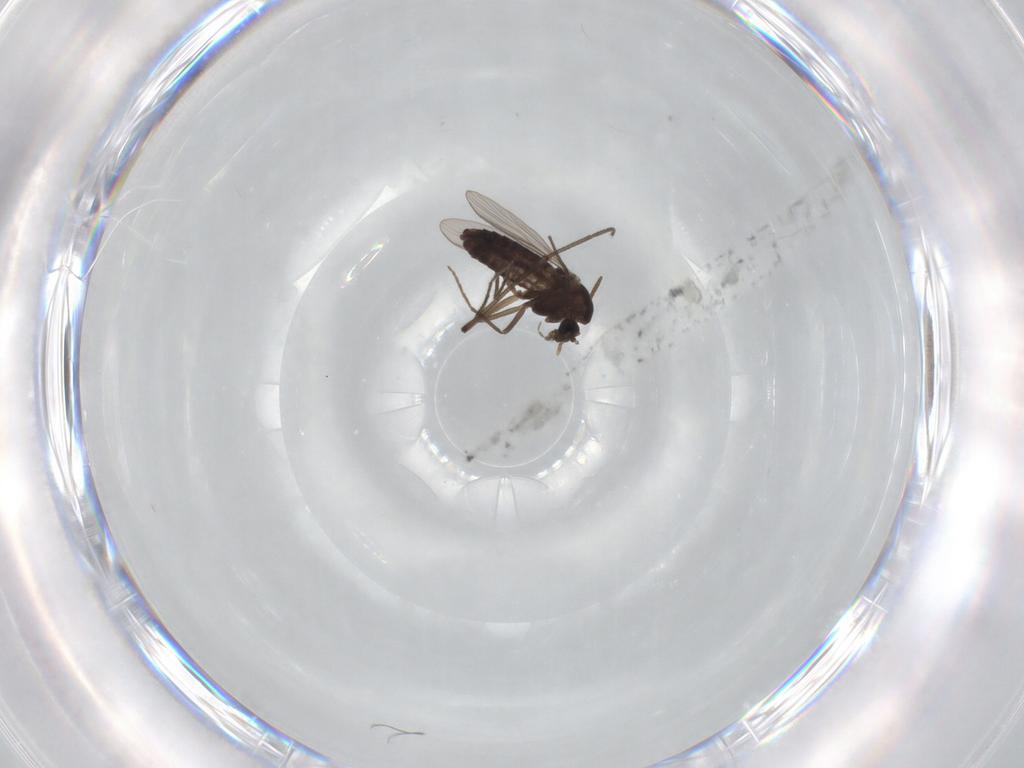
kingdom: Animalia
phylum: Arthropoda
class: Insecta
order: Diptera
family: Sciaridae
